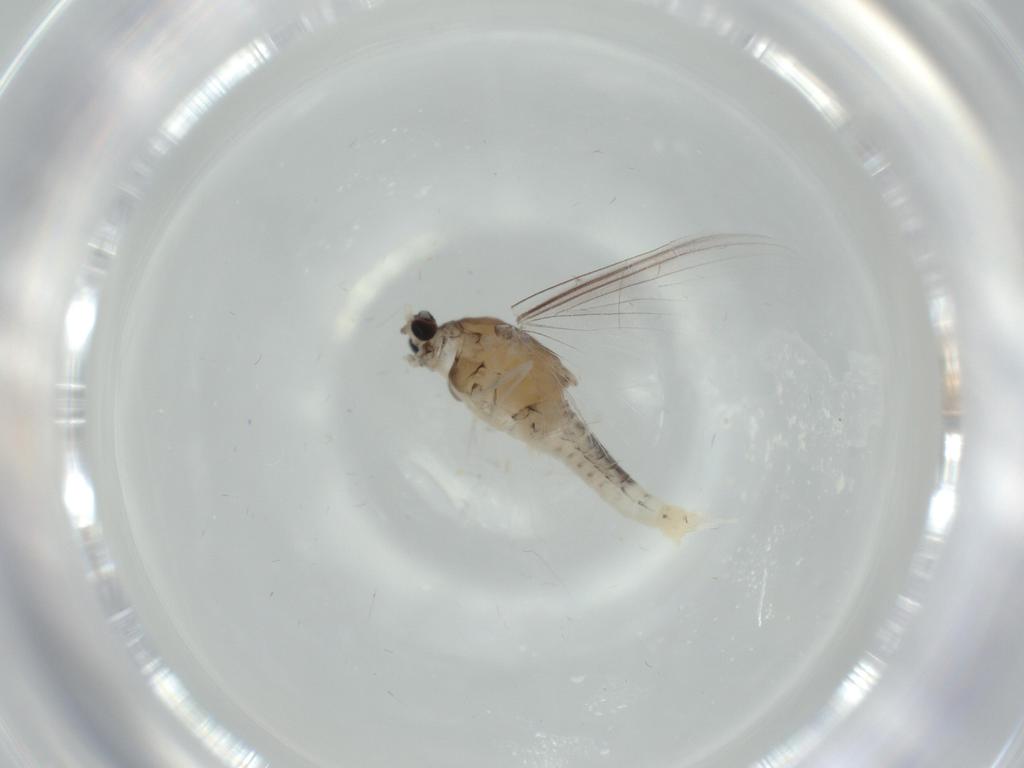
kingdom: Animalia
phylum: Arthropoda
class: Insecta
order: Ephemeroptera
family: Caenidae
